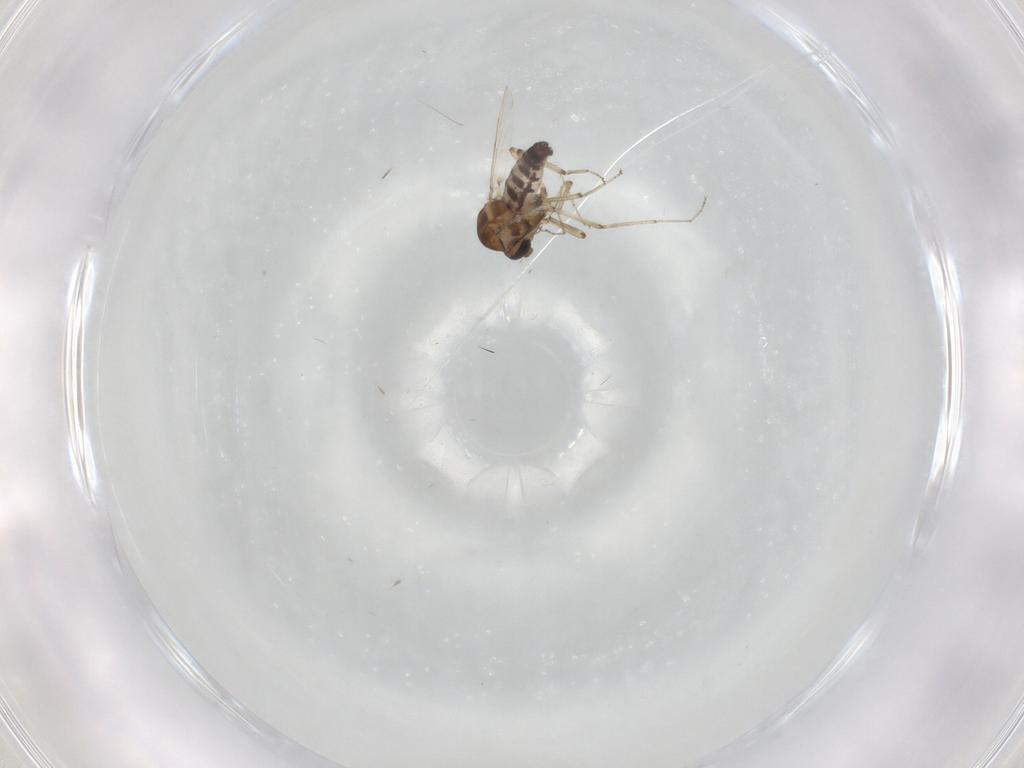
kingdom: Animalia
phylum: Arthropoda
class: Insecta
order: Diptera
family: Ceratopogonidae
